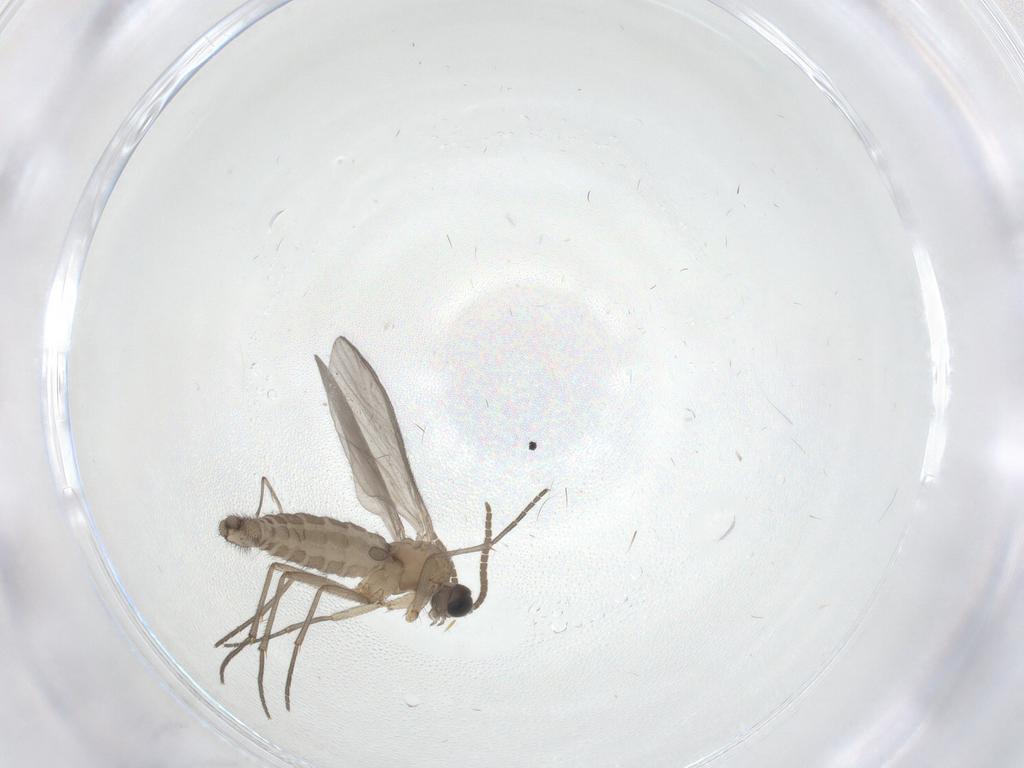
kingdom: Animalia
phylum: Arthropoda
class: Insecta
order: Diptera
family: Sciaridae
